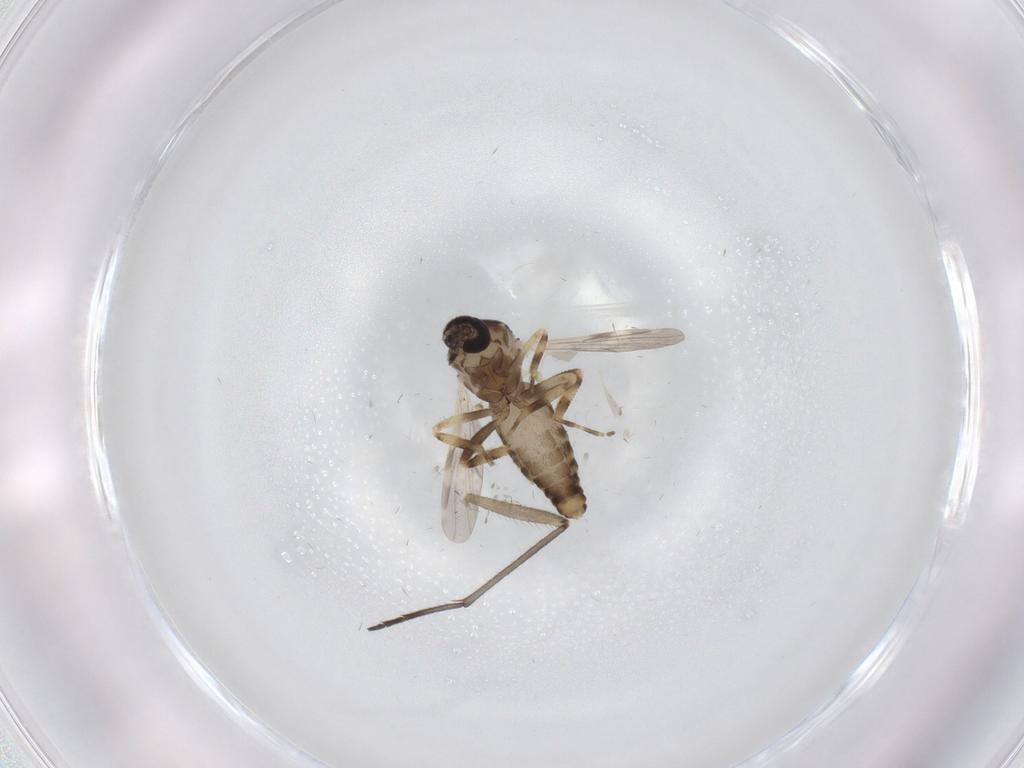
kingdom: Animalia
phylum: Arthropoda
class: Insecta
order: Diptera
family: Ceratopogonidae
